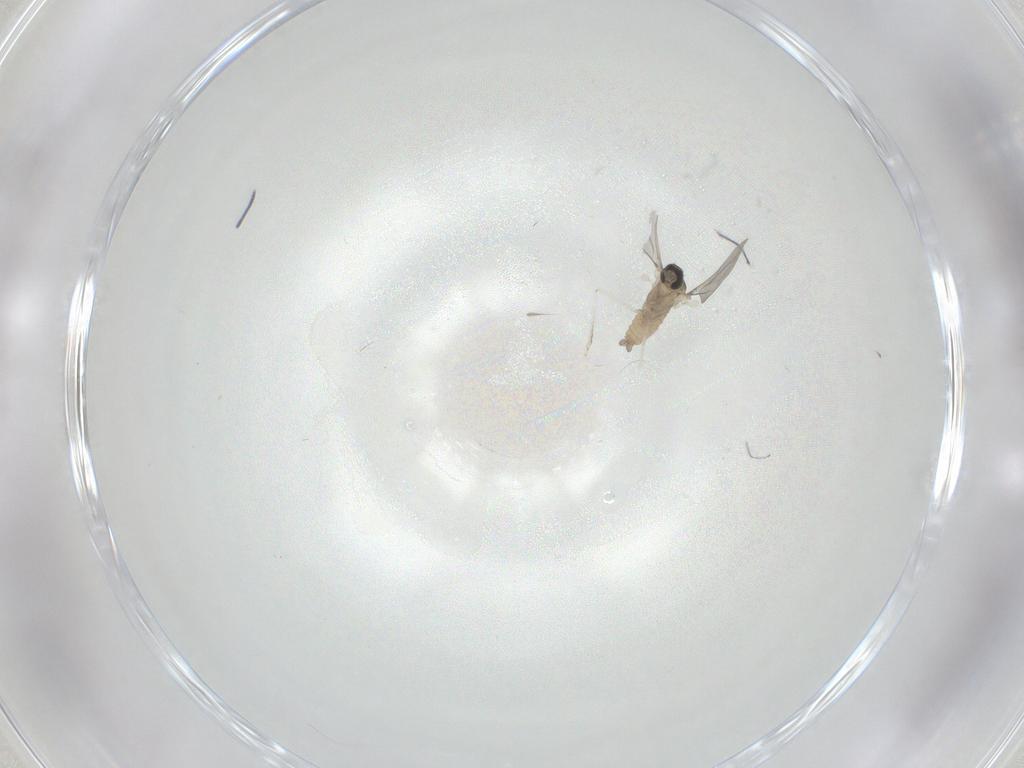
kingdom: Animalia
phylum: Arthropoda
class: Insecta
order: Diptera
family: Cecidomyiidae
